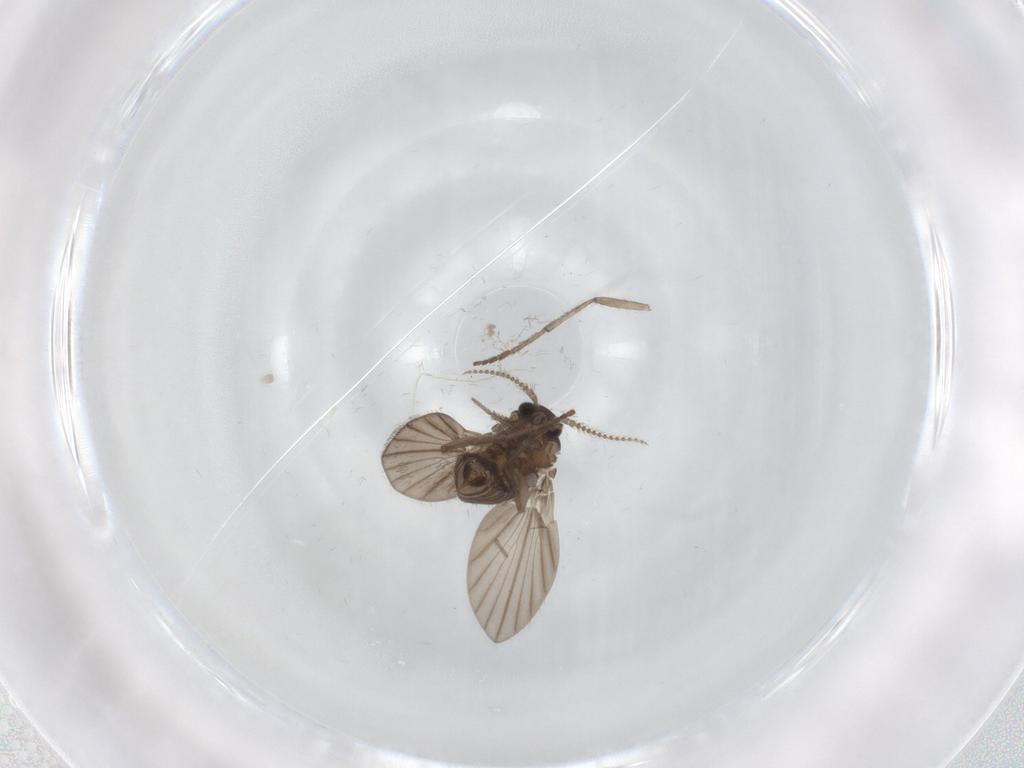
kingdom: Animalia
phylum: Arthropoda
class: Insecta
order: Diptera
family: Psychodidae
